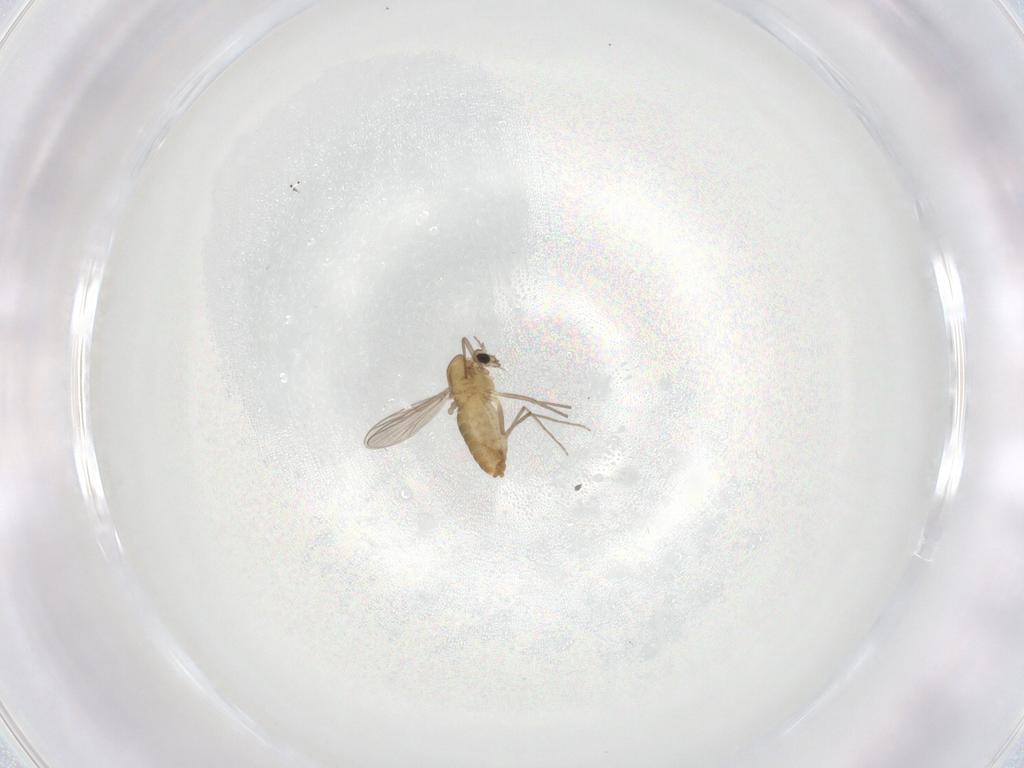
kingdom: Animalia
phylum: Arthropoda
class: Insecta
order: Diptera
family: Chironomidae
